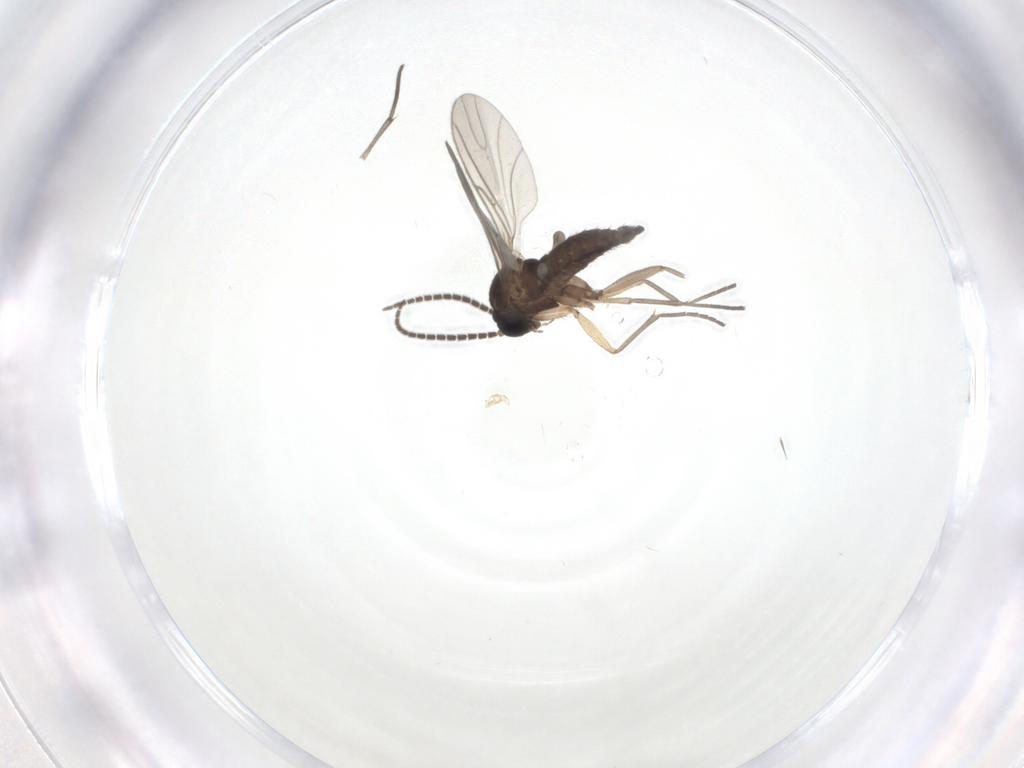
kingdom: Animalia
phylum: Arthropoda
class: Insecta
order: Diptera
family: Sciaridae
